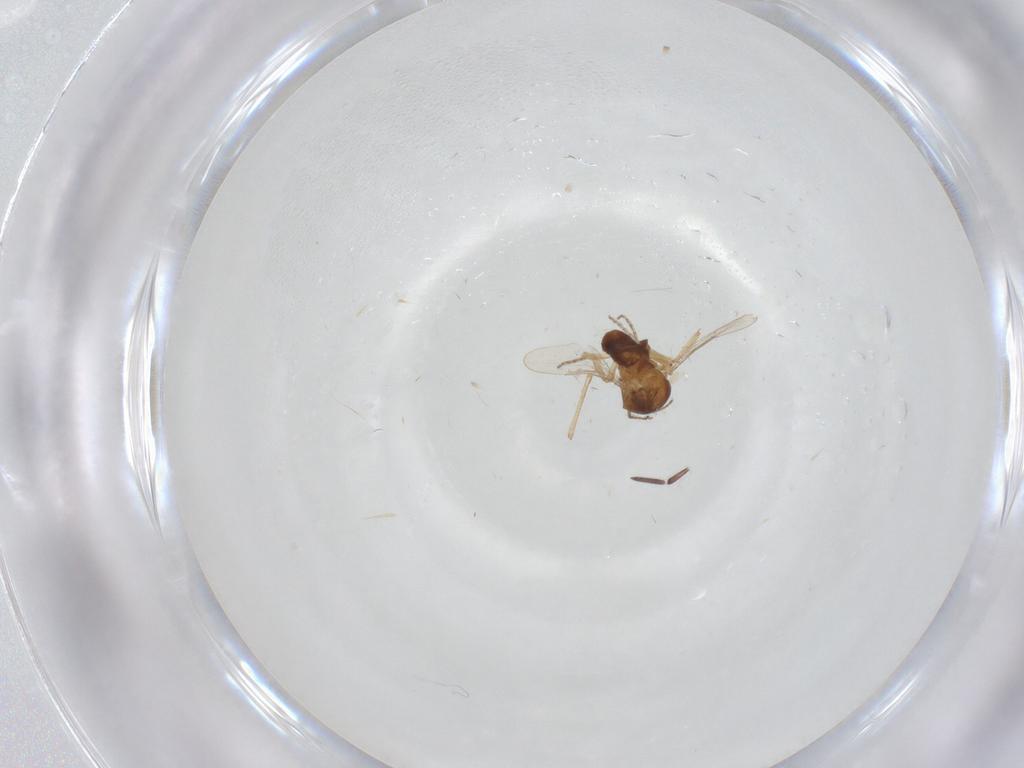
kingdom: Animalia
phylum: Arthropoda
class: Insecta
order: Diptera
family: Ceratopogonidae
